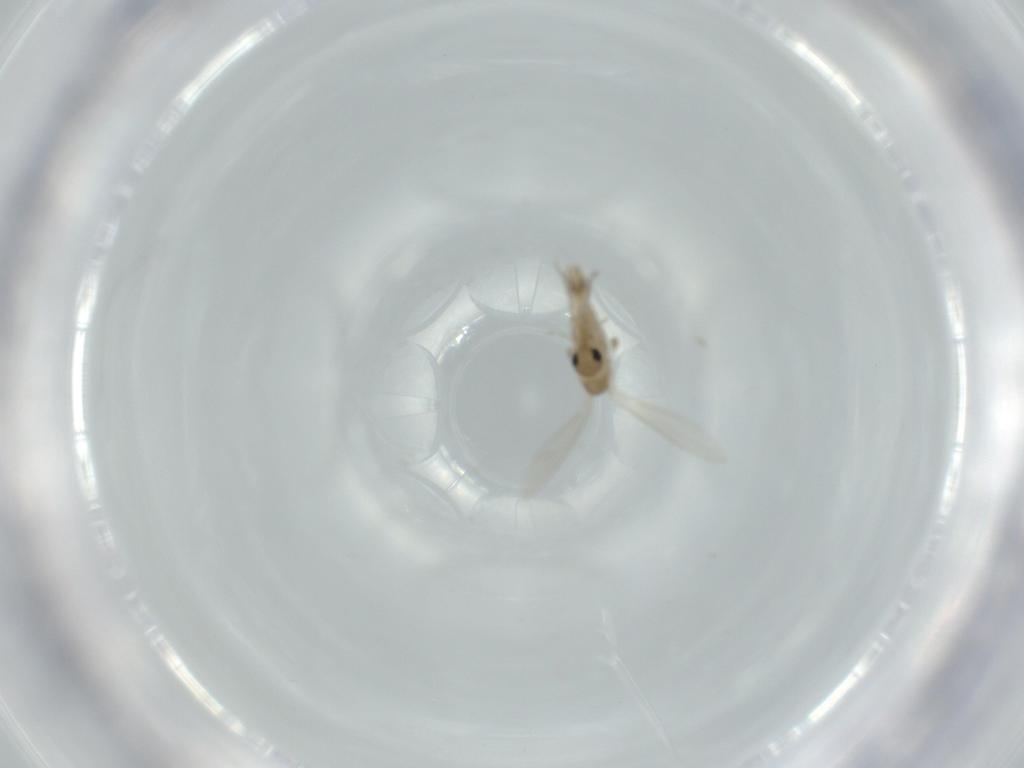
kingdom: Animalia
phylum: Arthropoda
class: Insecta
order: Diptera
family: Psychodidae
